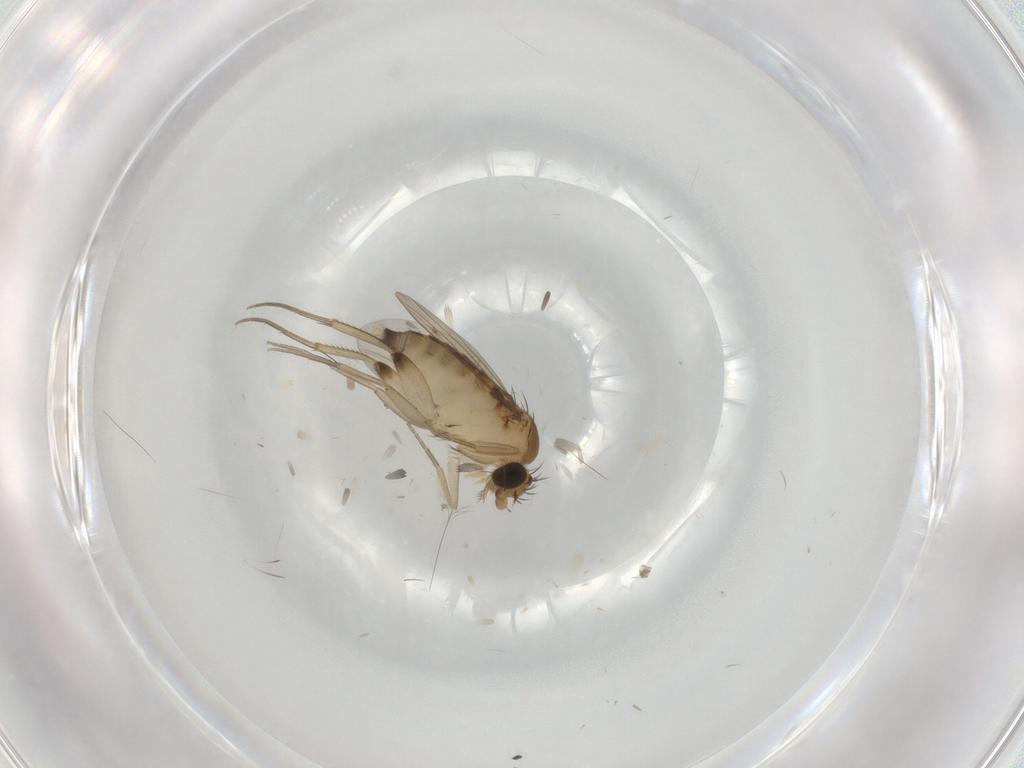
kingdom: Animalia
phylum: Arthropoda
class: Insecta
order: Diptera
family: Phoridae
